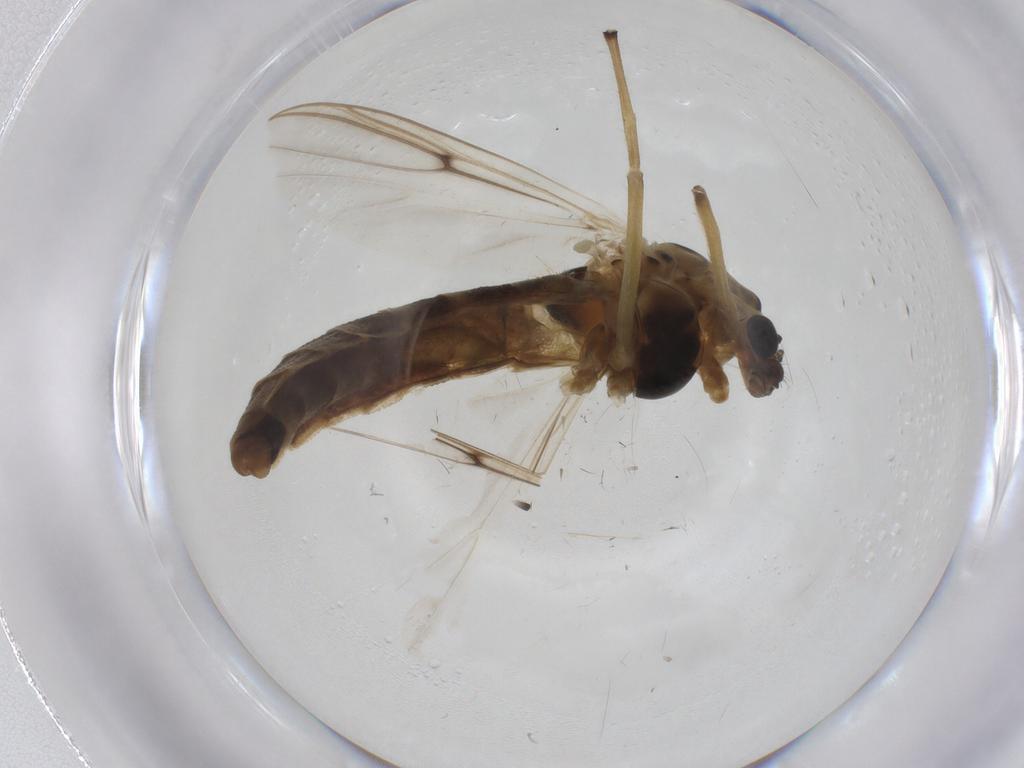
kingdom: Animalia
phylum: Arthropoda
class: Insecta
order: Diptera
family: Chironomidae
